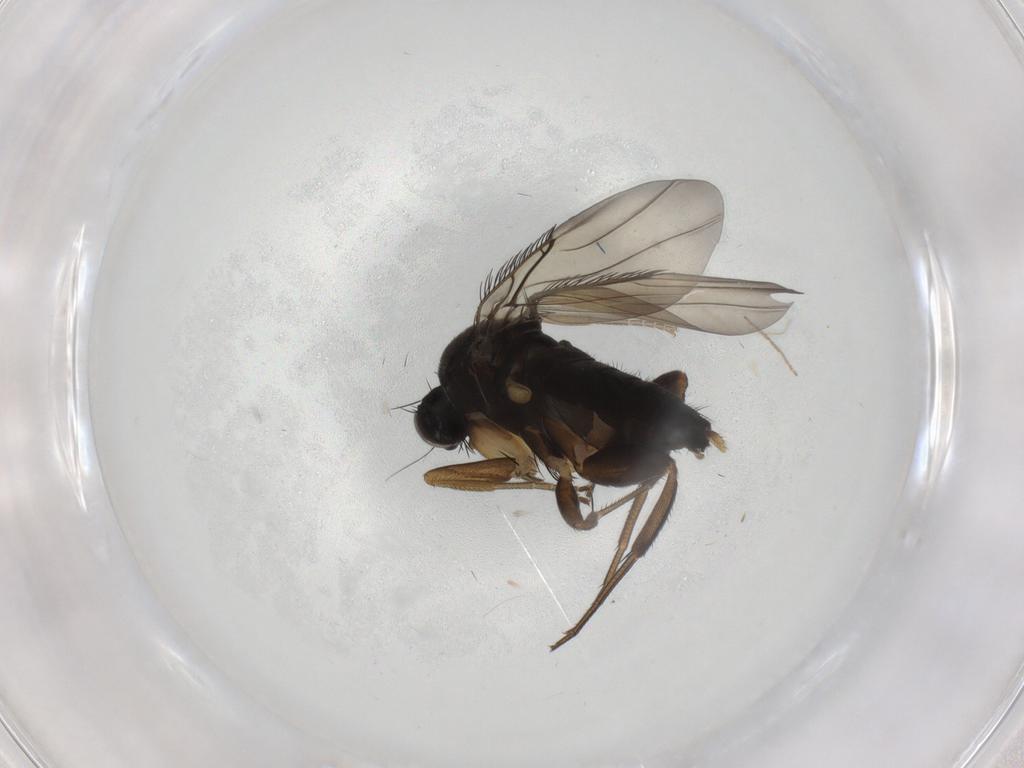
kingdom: Animalia
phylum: Arthropoda
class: Insecta
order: Diptera
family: Phoridae
